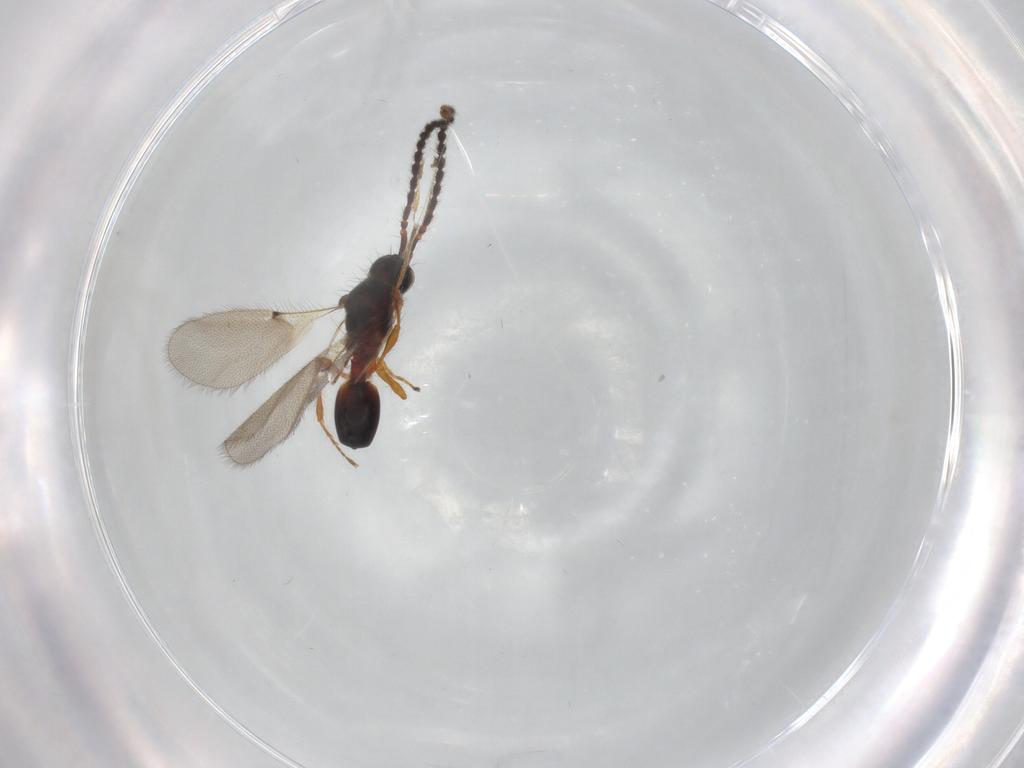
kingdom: Animalia
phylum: Arthropoda
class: Insecta
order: Hymenoptera
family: Diapriidae
